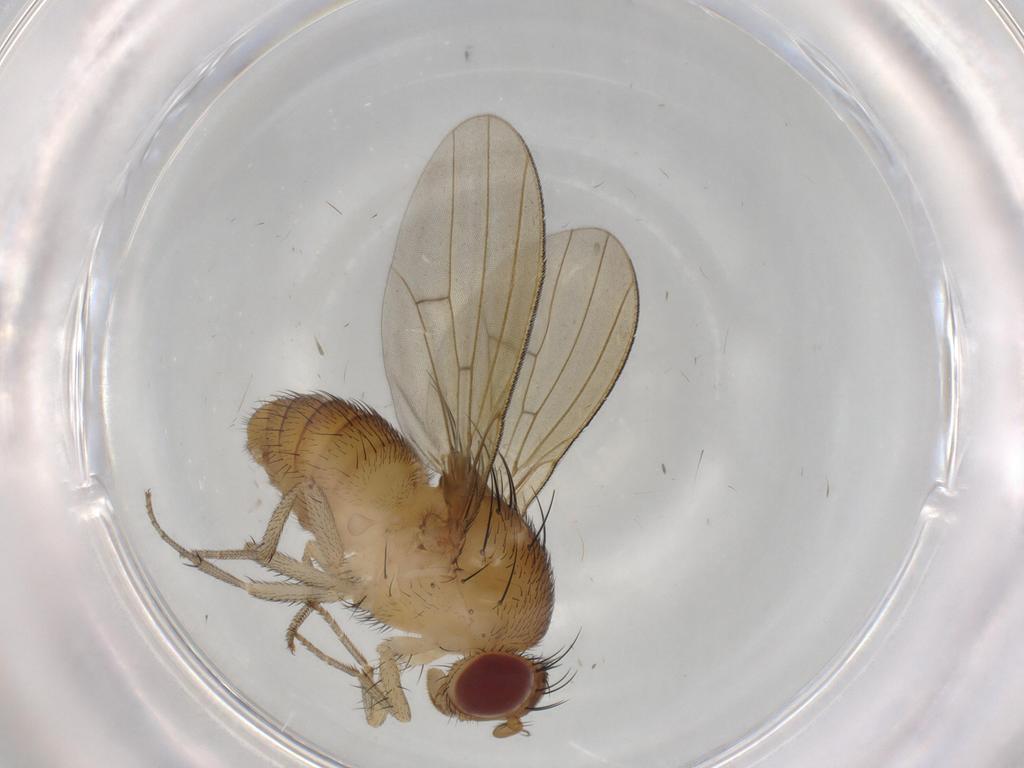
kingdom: Animalia
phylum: Arthropoda
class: Insecta
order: Diptera
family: Lauxaniidae
